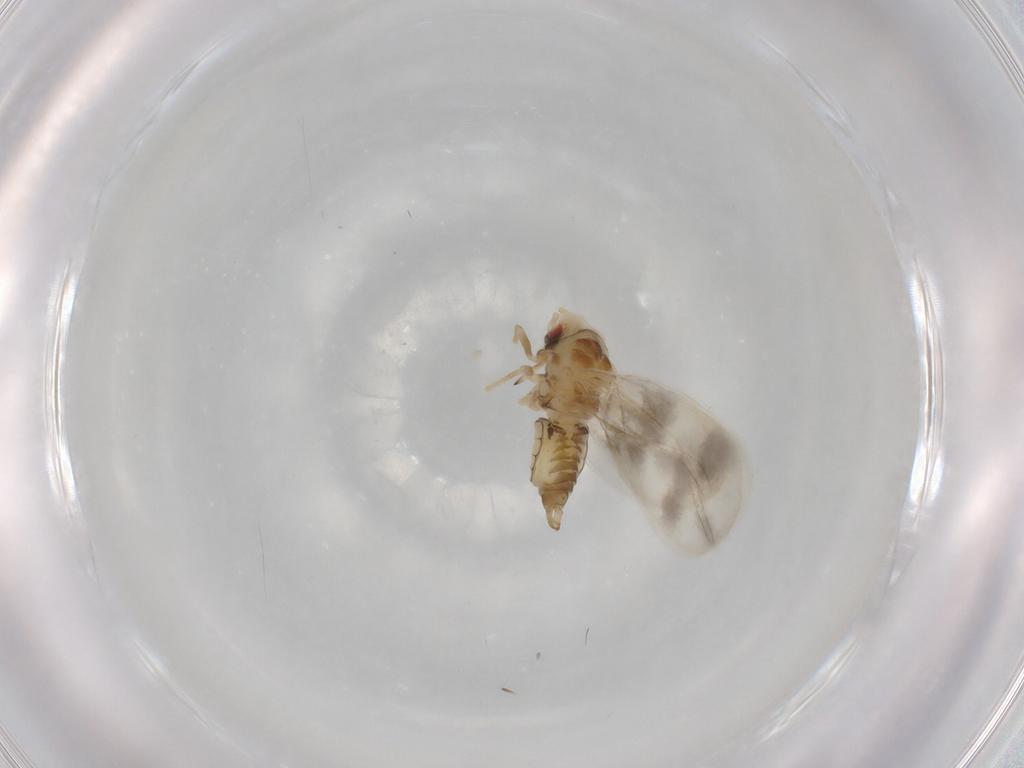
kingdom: Animalia
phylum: Arthropoda
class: Insecta
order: Hemiptera
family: Aleyrodidae
